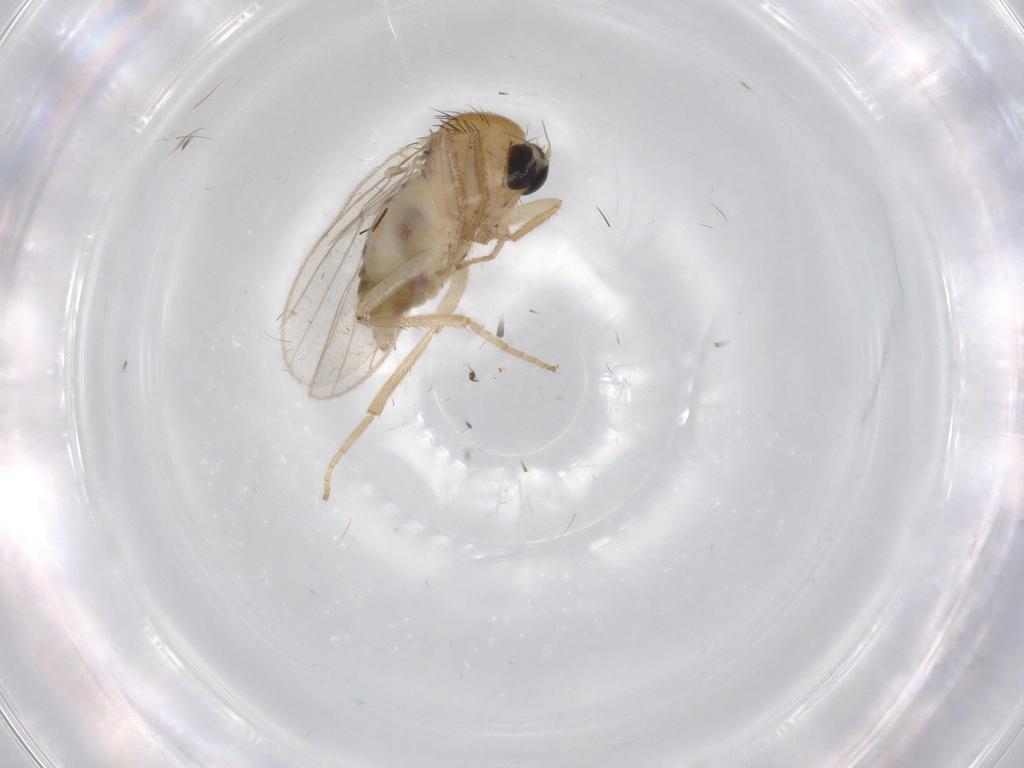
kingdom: Animalia
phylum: Arthropoda
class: Insecta
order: Diptera
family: Hybotidae
